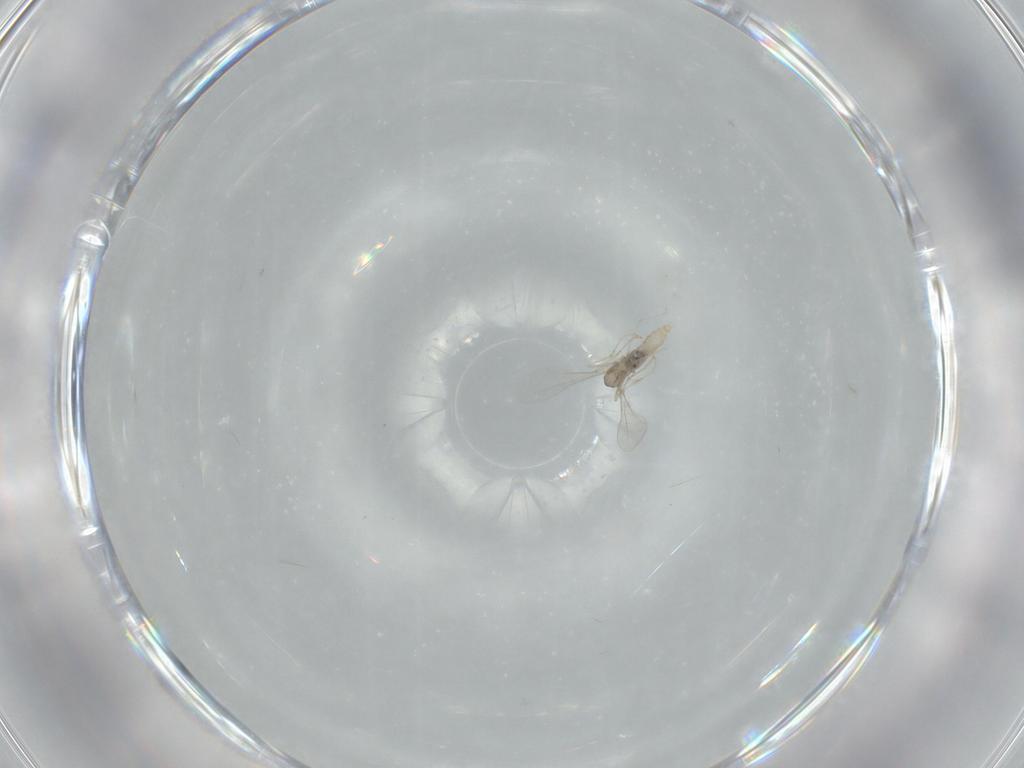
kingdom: Animalia
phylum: Arthropoda
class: Insecta
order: Diptera
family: Cecidomyiidae
